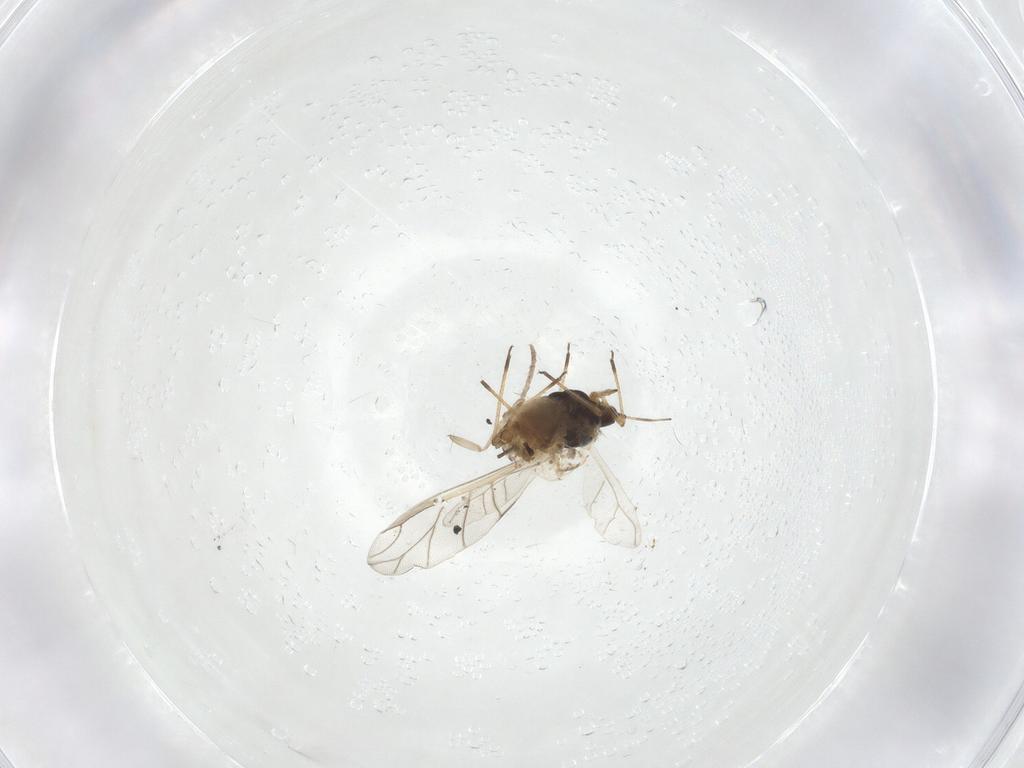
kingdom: Animalia
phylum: Arthropoda
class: Insecta
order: Hemiptera
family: Aphididae
